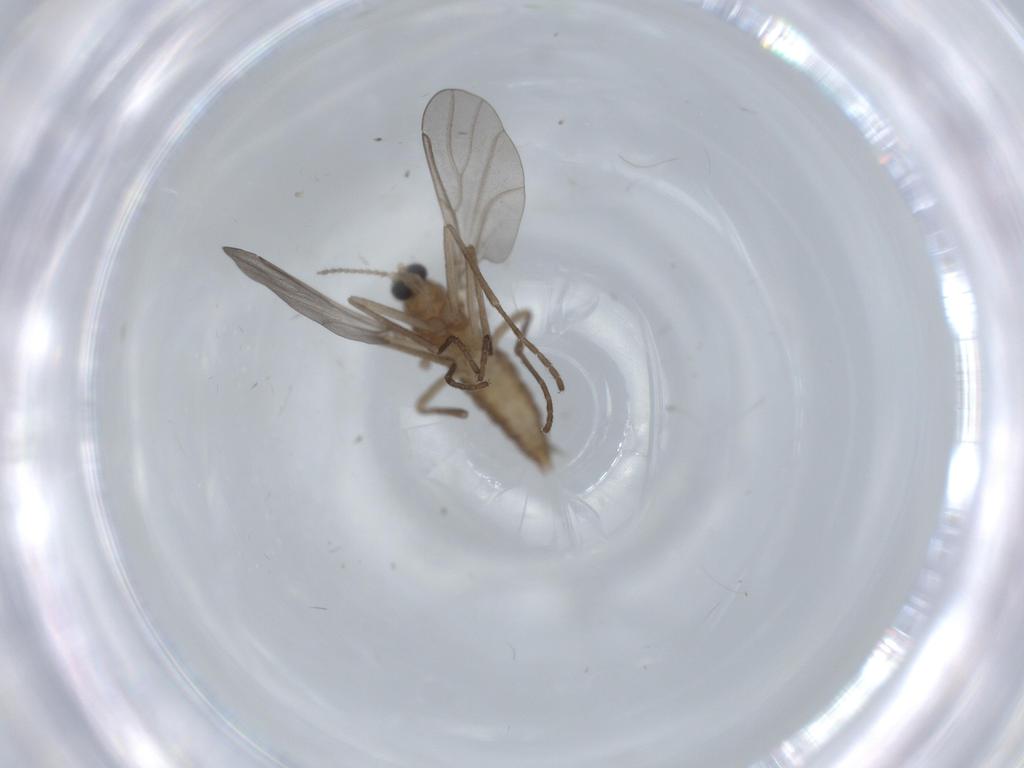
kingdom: Animalia
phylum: Arthropoda
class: Insecta
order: Diptera
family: Cecidomyiidae
